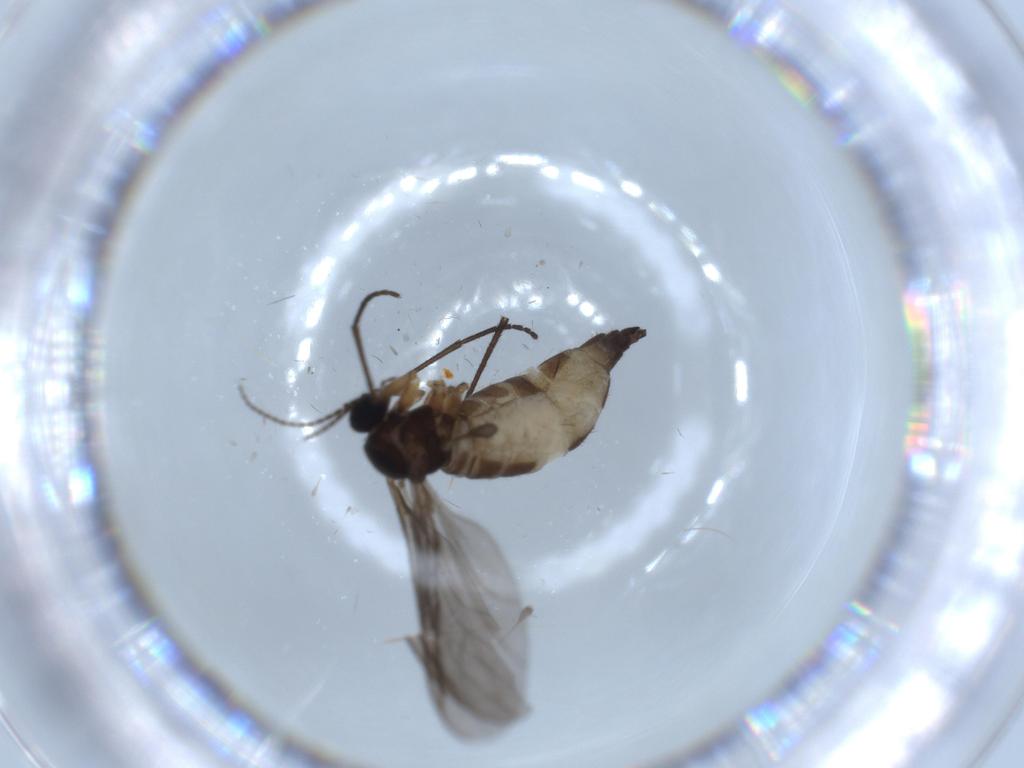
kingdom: Animalia
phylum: Arthropoda
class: Insecta
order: Diptera
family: Sciaridae
